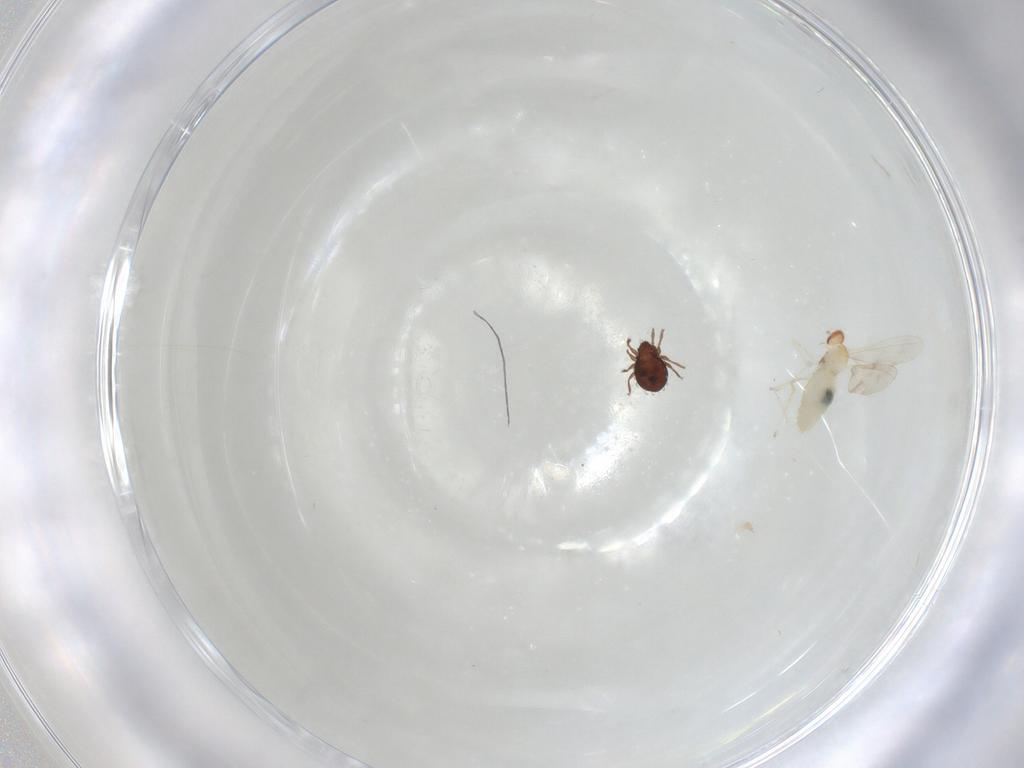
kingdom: Animalia
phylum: Arthropoda
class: Arachnida
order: Sarcoptiformes
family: Scheloribatidae
